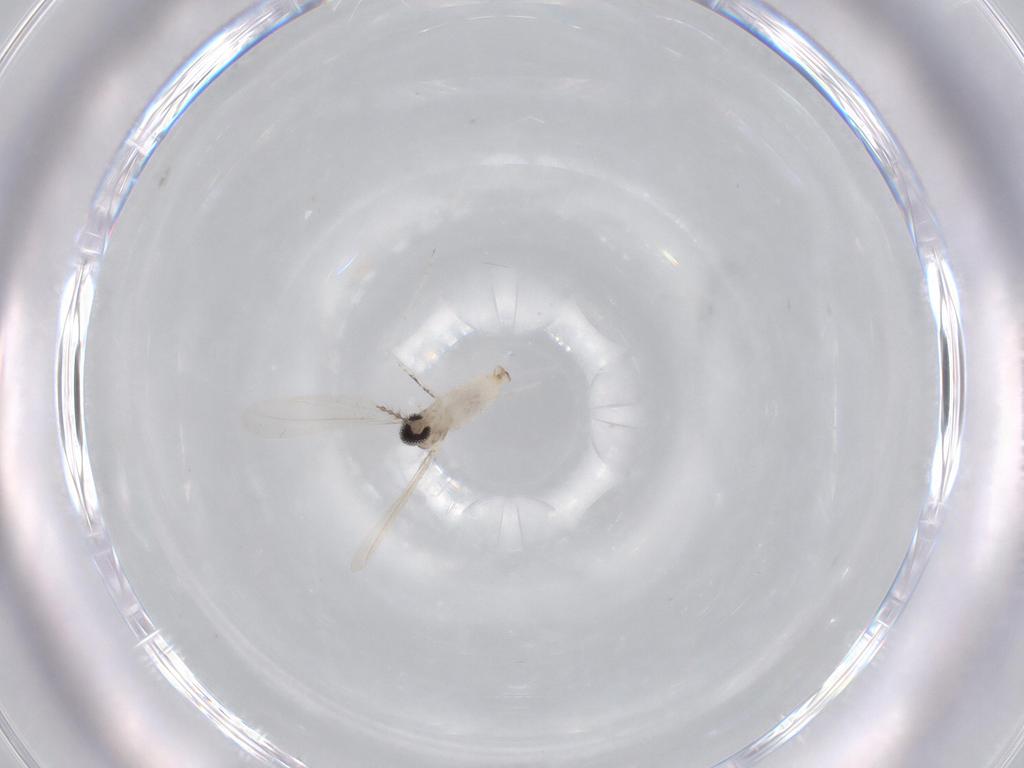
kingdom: Animalia
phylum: Arthropoda
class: Insecta
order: Diptera
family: Cecidomyiidae
